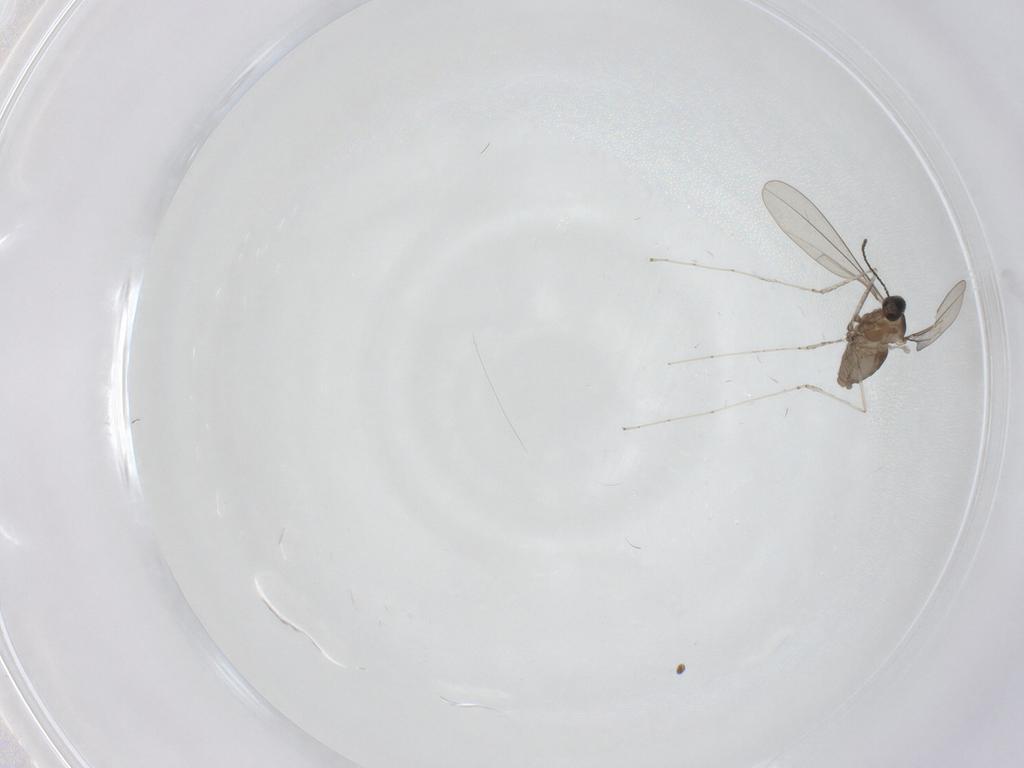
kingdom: Animalia
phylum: Arthropoda
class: Insecta
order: Diptera
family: Cecidomyiidae
